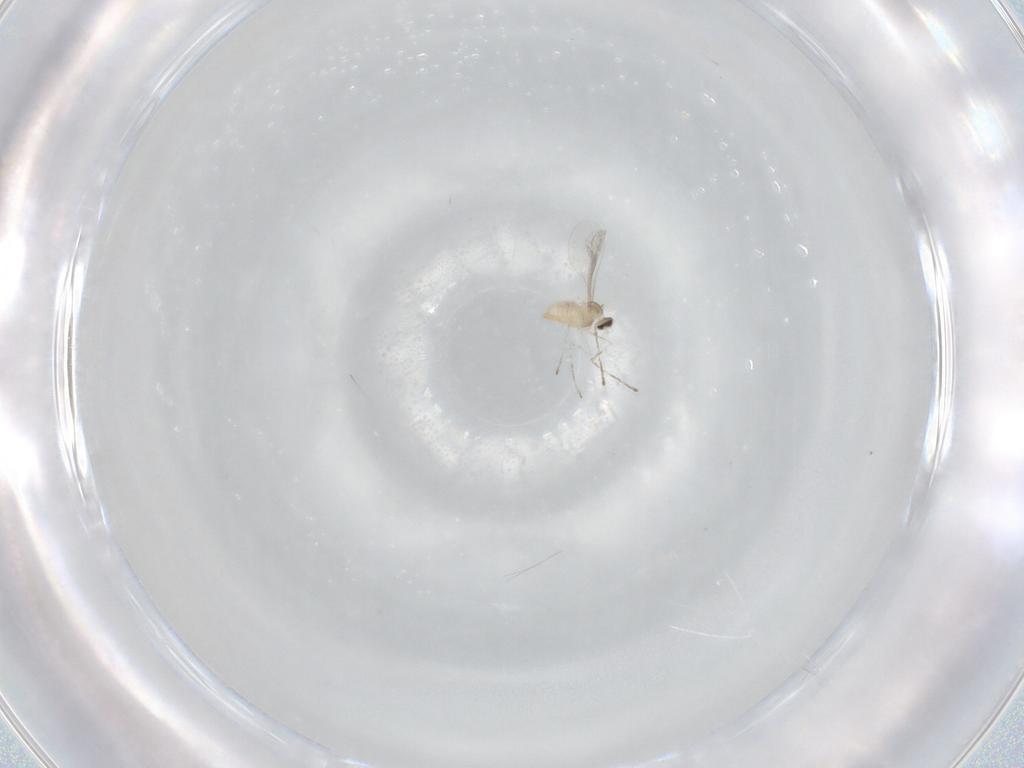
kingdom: Animalia
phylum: Arthropoda
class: Insecta
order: Diptera
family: Cecidomyiidae
